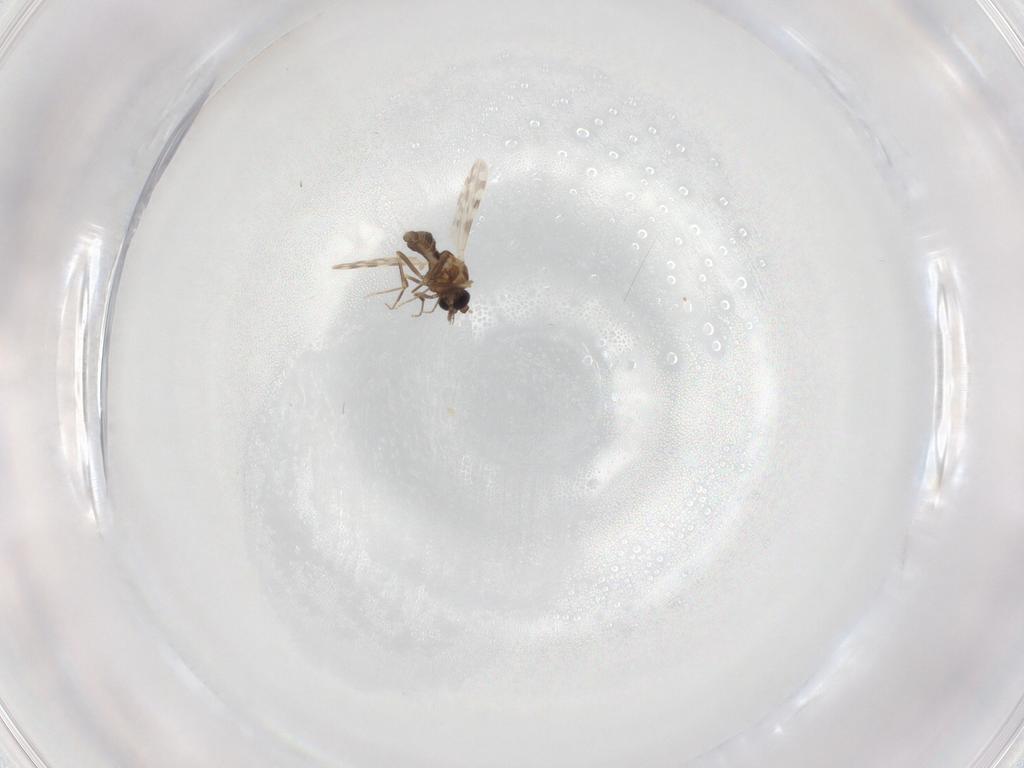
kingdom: Animalia
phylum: Arthropoda
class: Insecta
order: Diptera
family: Ceratopogonidae
